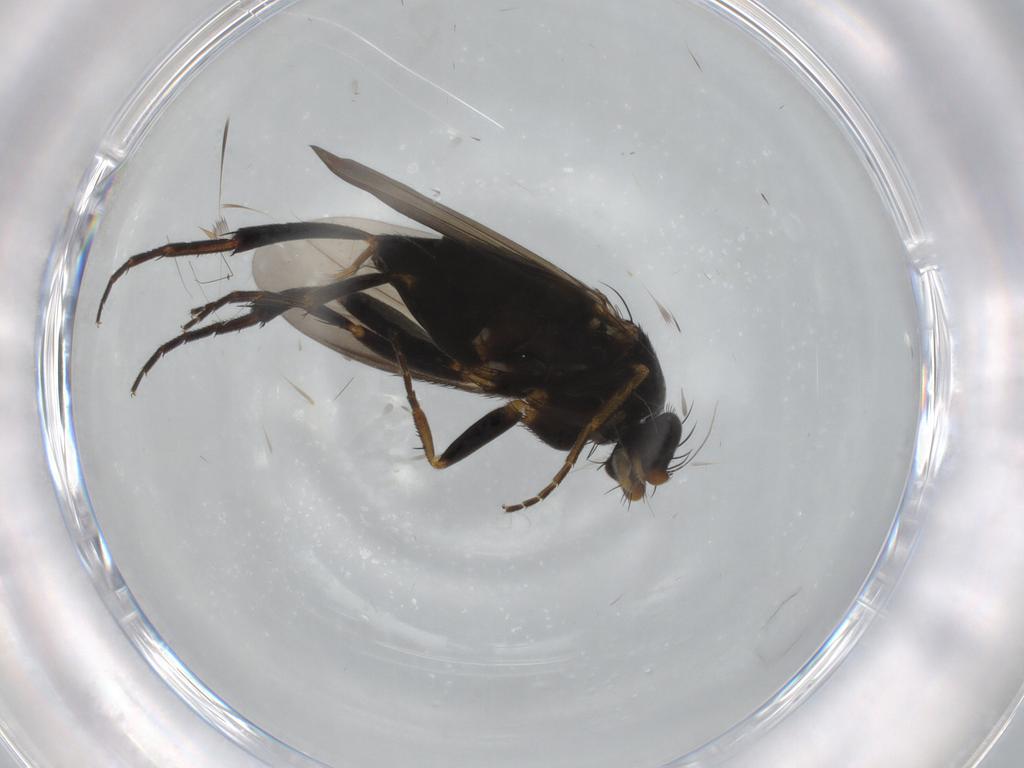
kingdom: Animalia
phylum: Arthropoda
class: Insecta
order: Diptera
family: Phoridae
